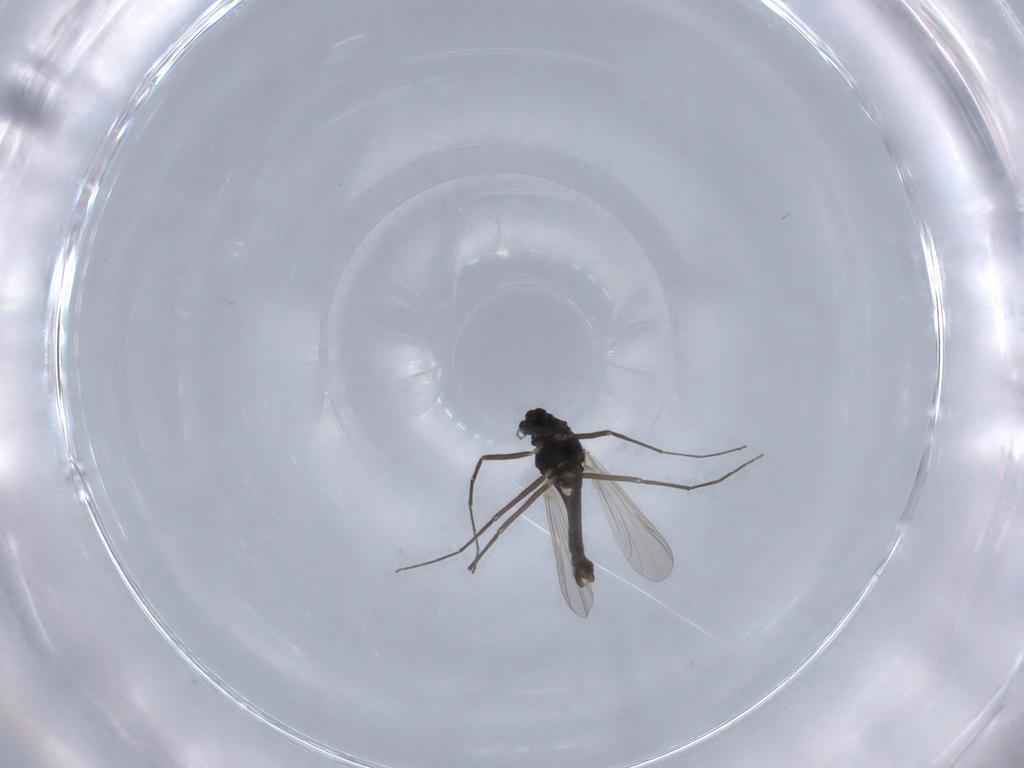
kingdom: Animalia
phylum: Arthropoda
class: Insecta
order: Diptera
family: Chironomidae
